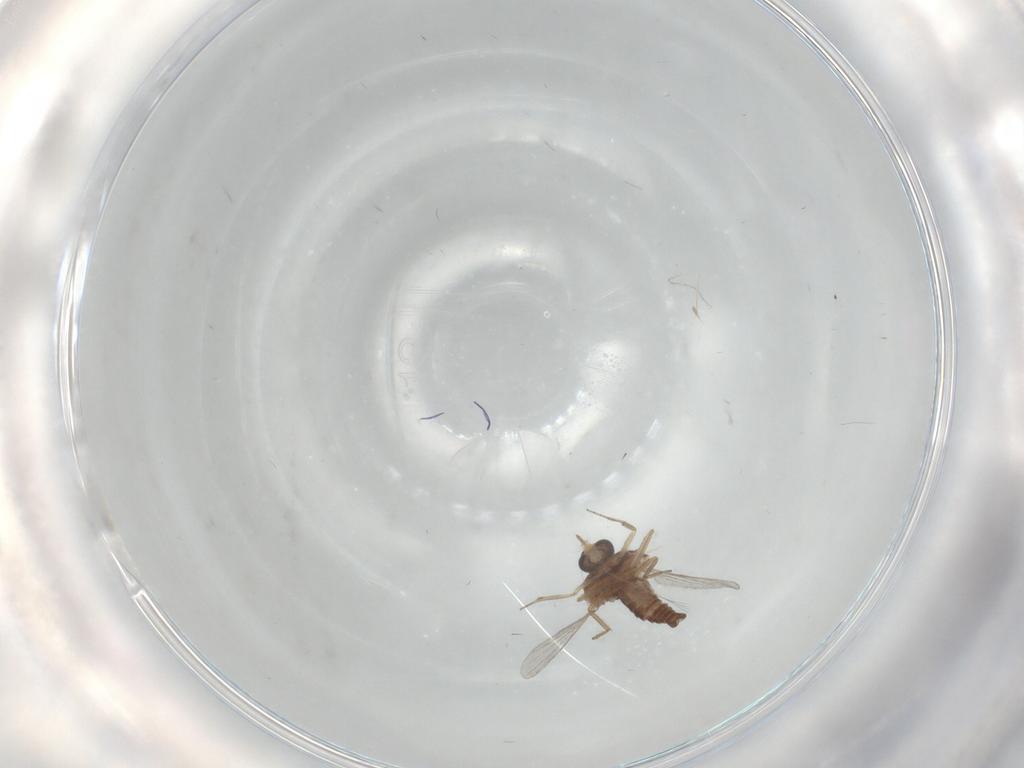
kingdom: Animalia
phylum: Arthropoda
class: Insecta
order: Diptera
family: Ceratopogonidae
